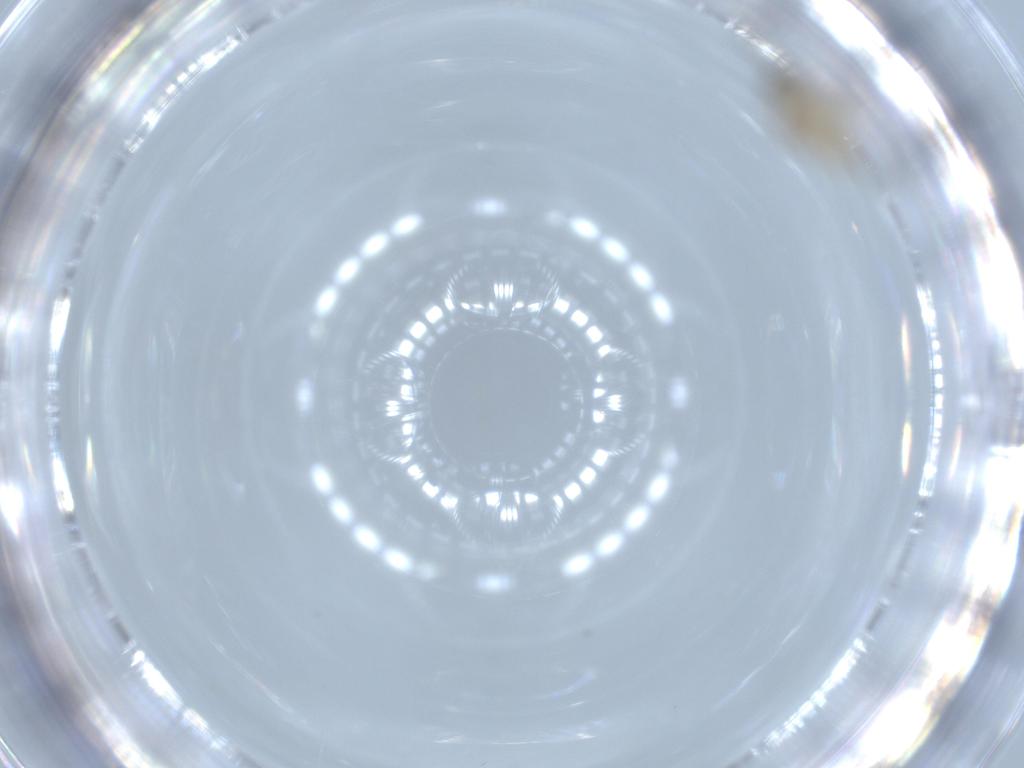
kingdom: Animalia
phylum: Arthropoda
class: Insecta
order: Diptera
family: Cecidomyiidae
